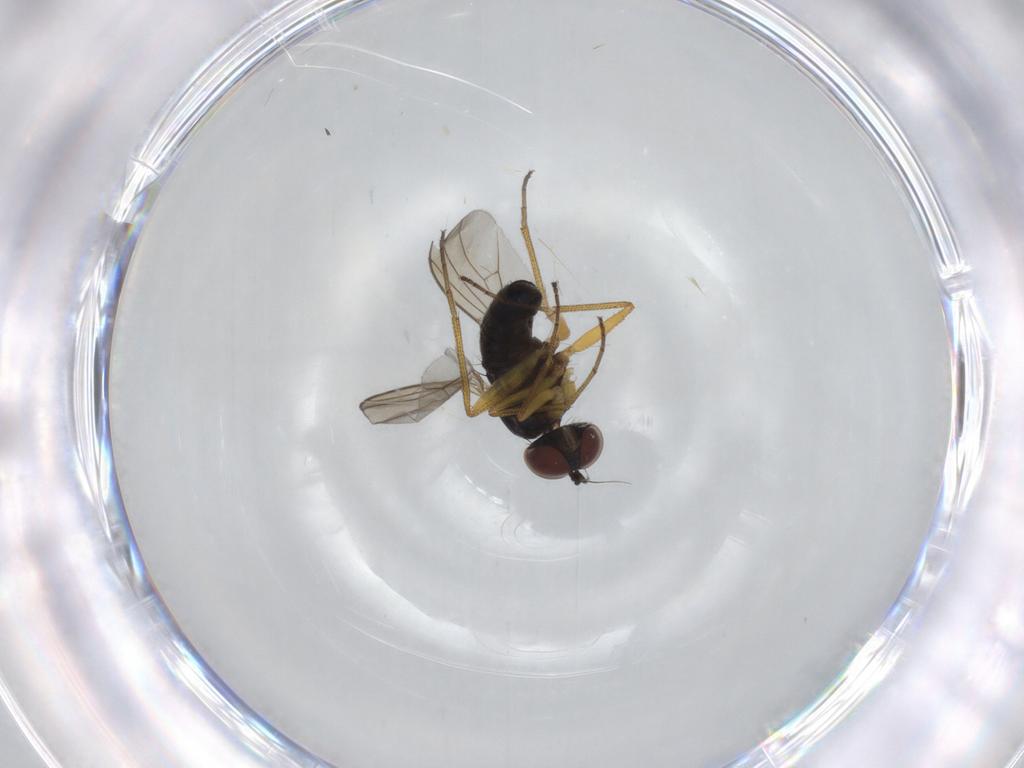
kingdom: Animalia
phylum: Arthropoda
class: Insecta
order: Diptera
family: Dolichopodidae
